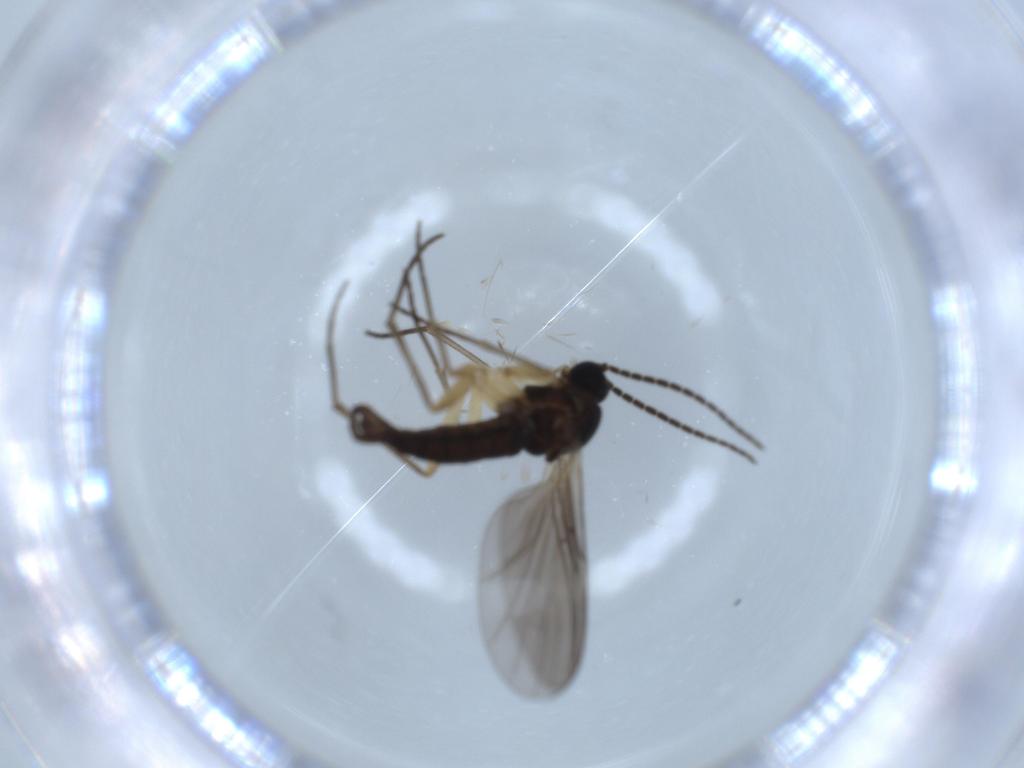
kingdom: Animalia
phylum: Arthropoda
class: Insecta
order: Diptera
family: Sciaridae
